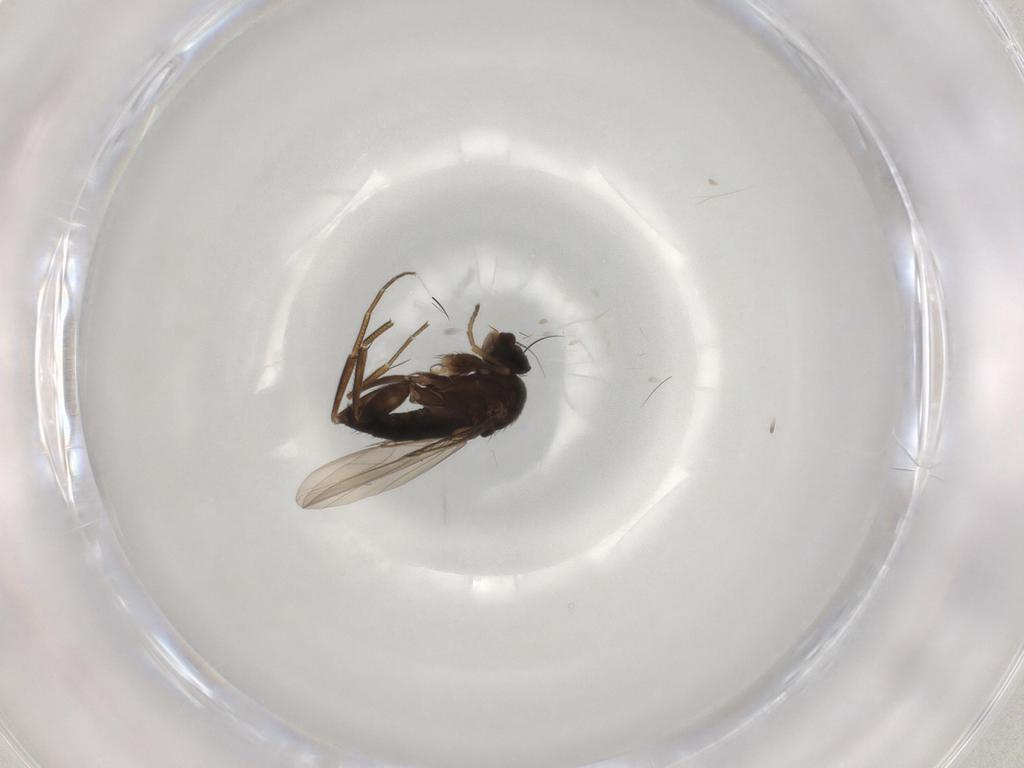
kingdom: Animalia
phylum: Arthropoda
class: Insecta
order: Diptera
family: Phoridae
